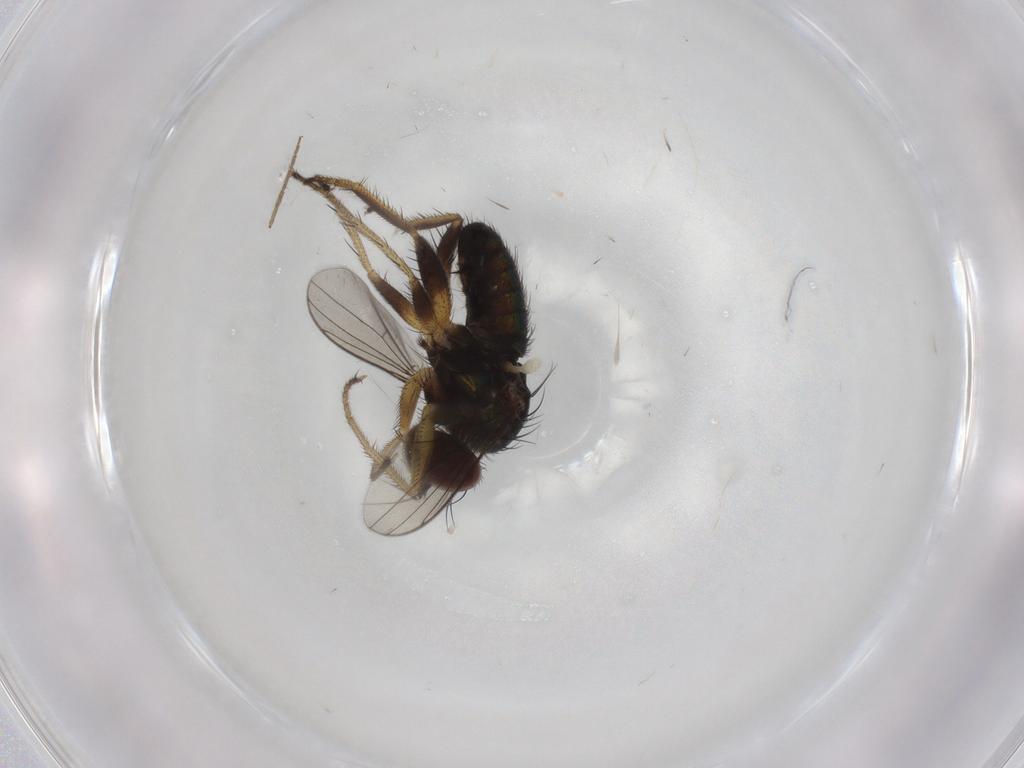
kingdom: Animalia
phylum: Arthropoda
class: Insecta
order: Diptera
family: Dolichopodidae
